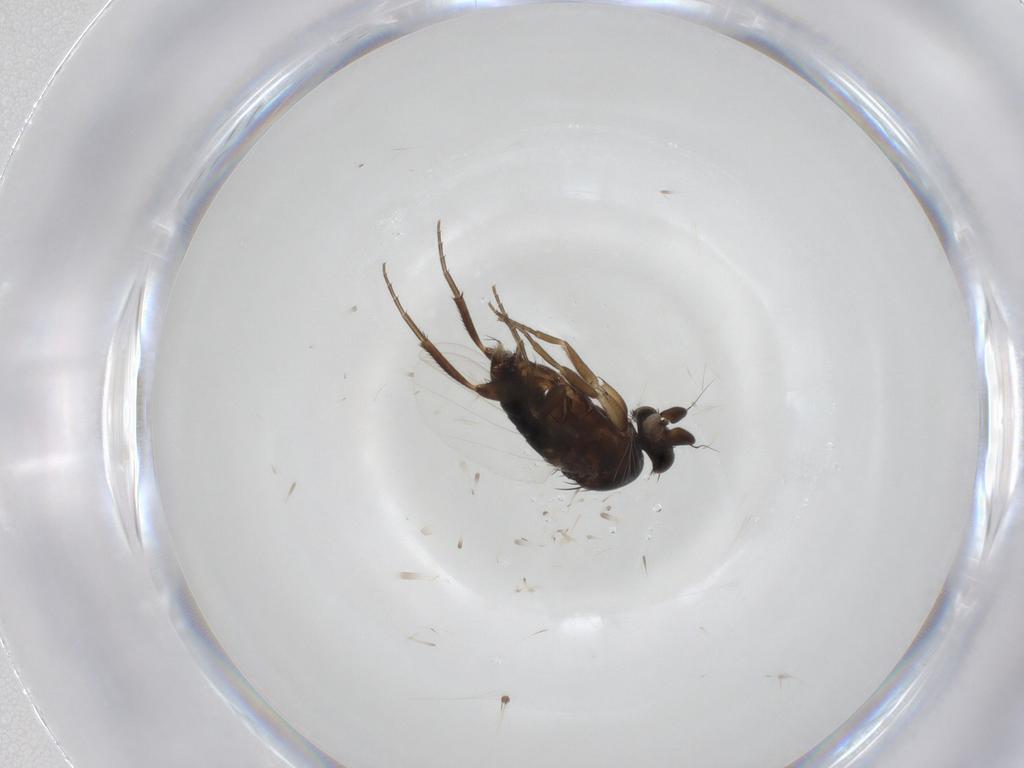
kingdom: Animalia
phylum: Arthropoda
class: Insecta
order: Diptera
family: Phoridae
